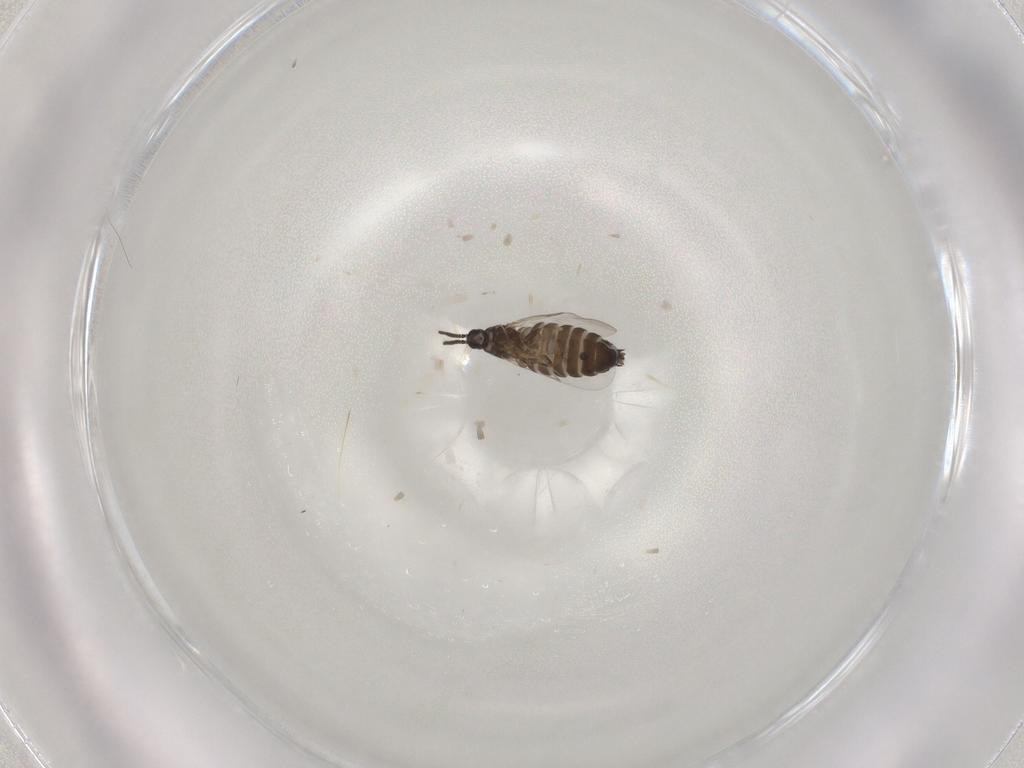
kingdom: Animalia
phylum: Arthropoda
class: Insecta
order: Diptera
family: Scatopsidae
